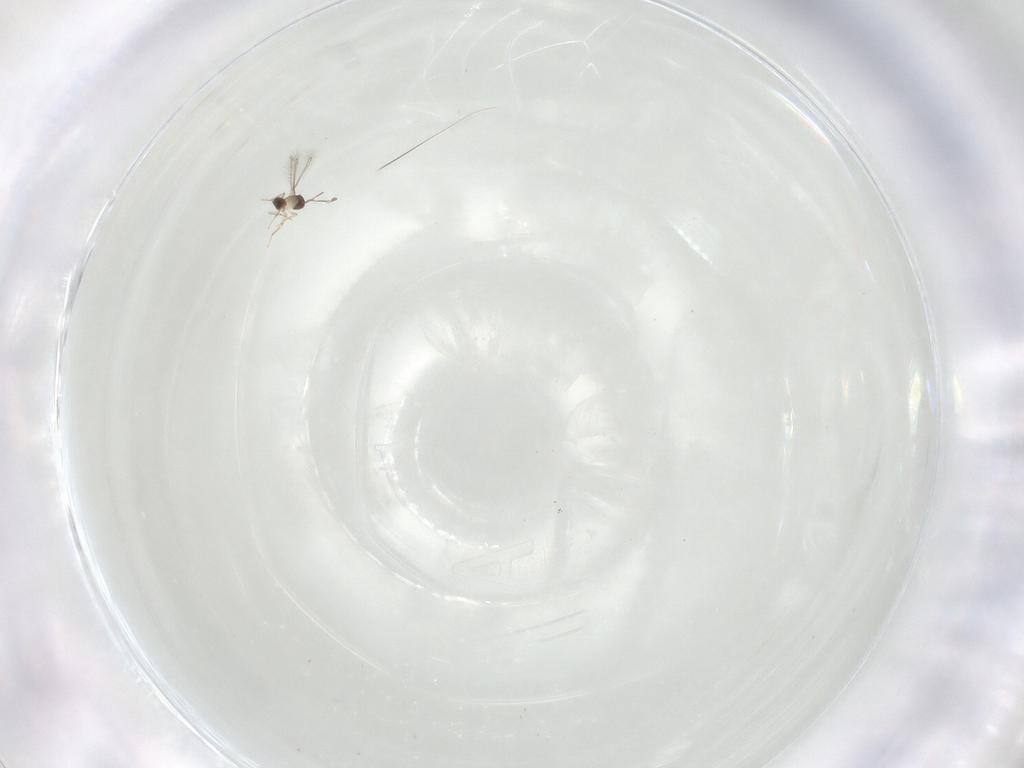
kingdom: Animalia
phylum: Arthropoda
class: Insecta
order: Hymenoptera
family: Mymaridae
